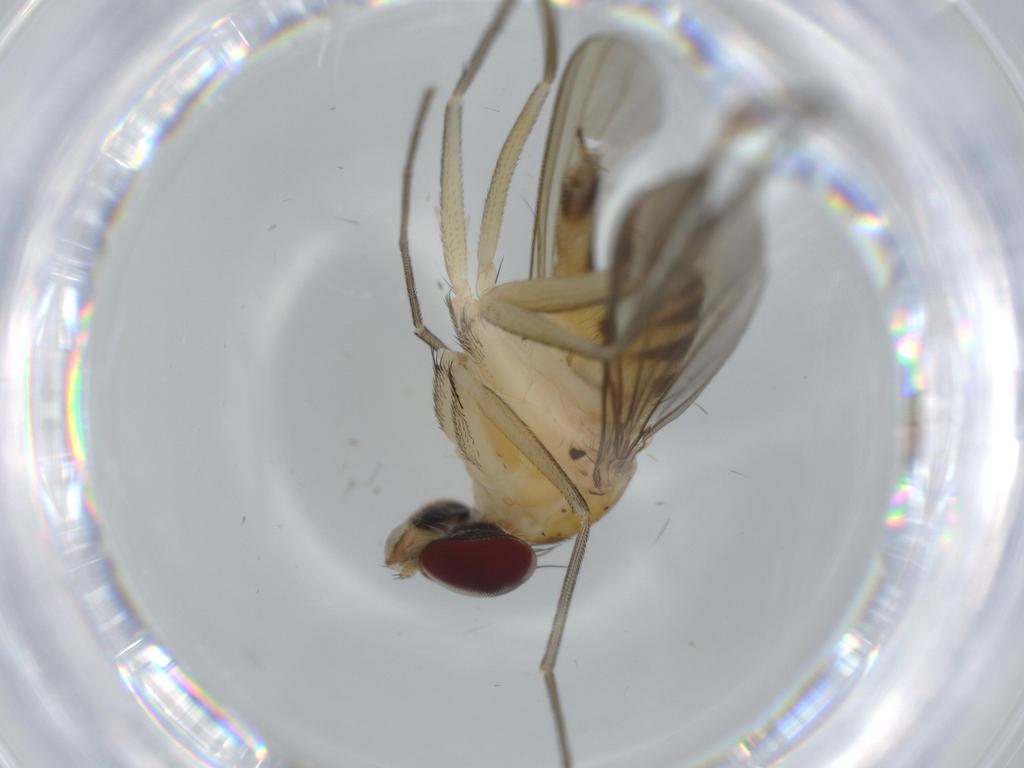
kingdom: Animalia
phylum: Arthropoda
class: Insecta
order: Diptera
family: Dolichopodidae
